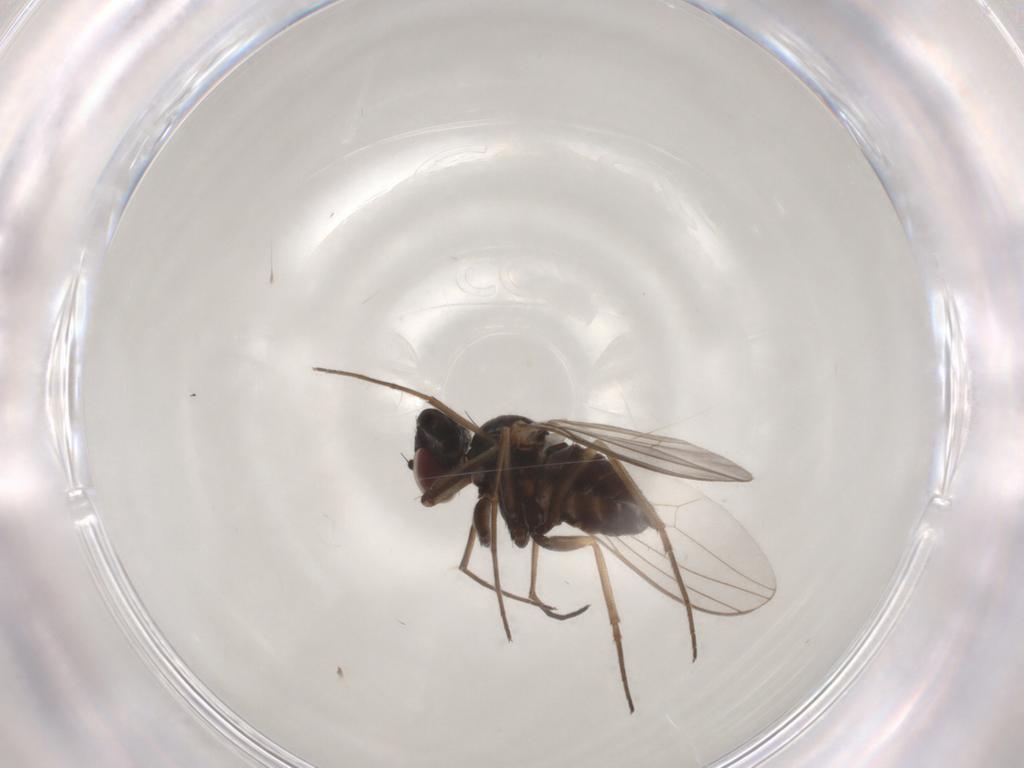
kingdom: Animalia
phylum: Arthropoda
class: Insecta
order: Diptera
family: Dolichopodidae
